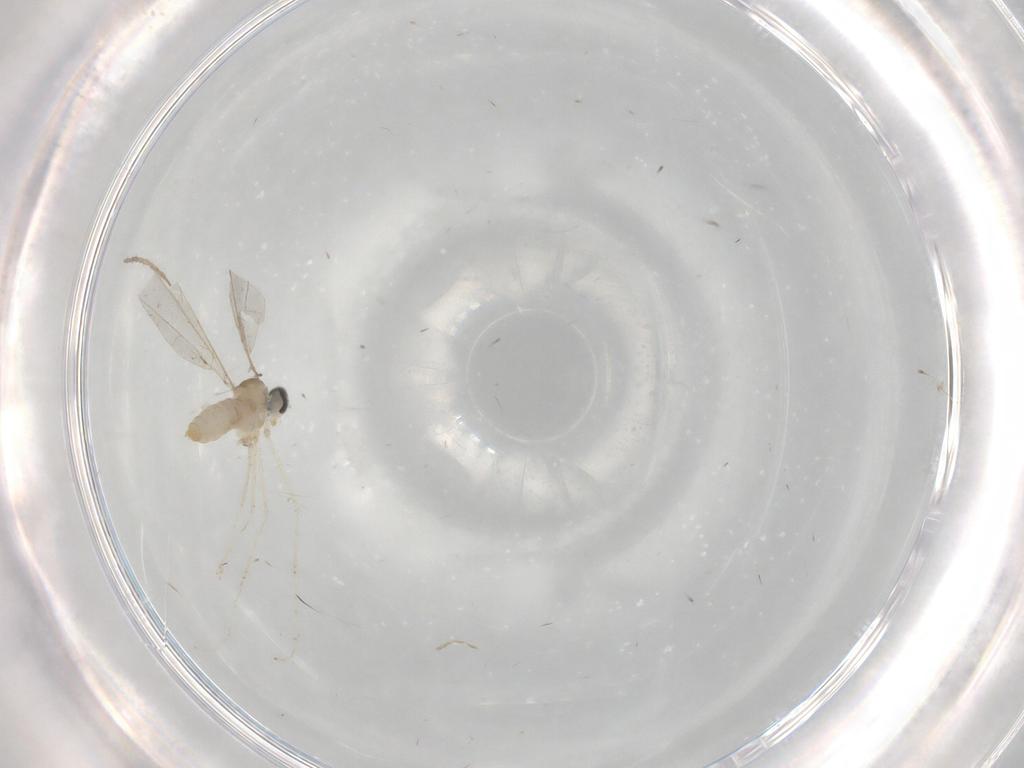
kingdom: Animalia
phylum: Arthropoda
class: Insecta
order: Diptera
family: Cecidomyiidae
